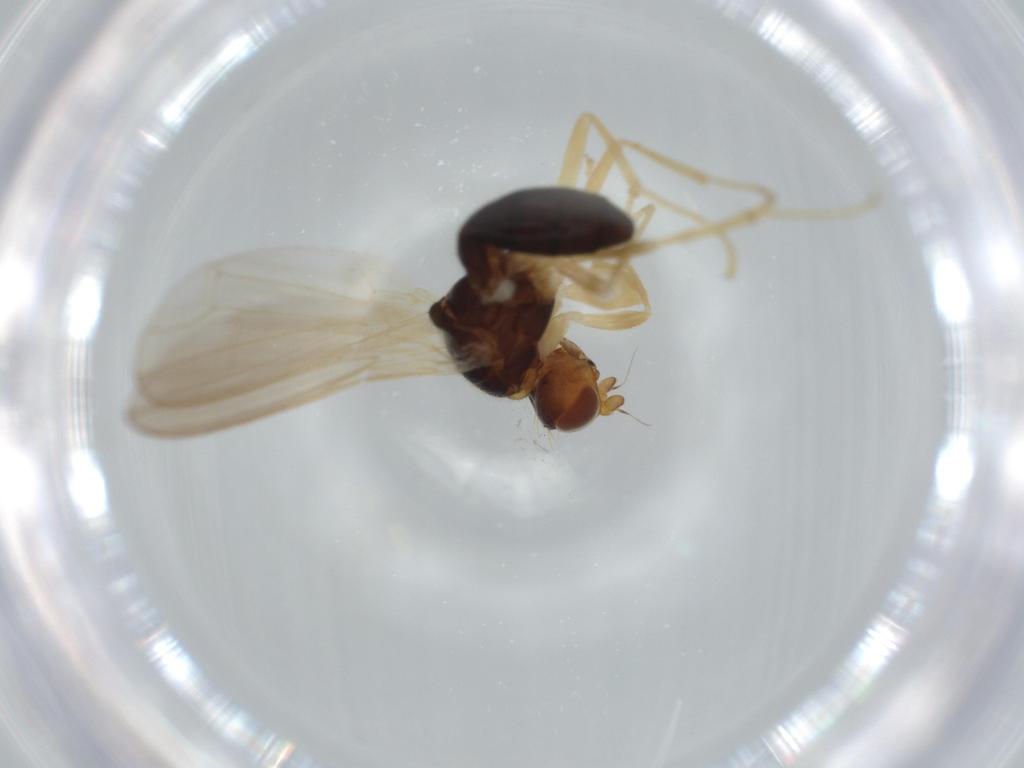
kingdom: Animalia
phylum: Arthropoda
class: Insecta
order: Diptera
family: Psilidae
